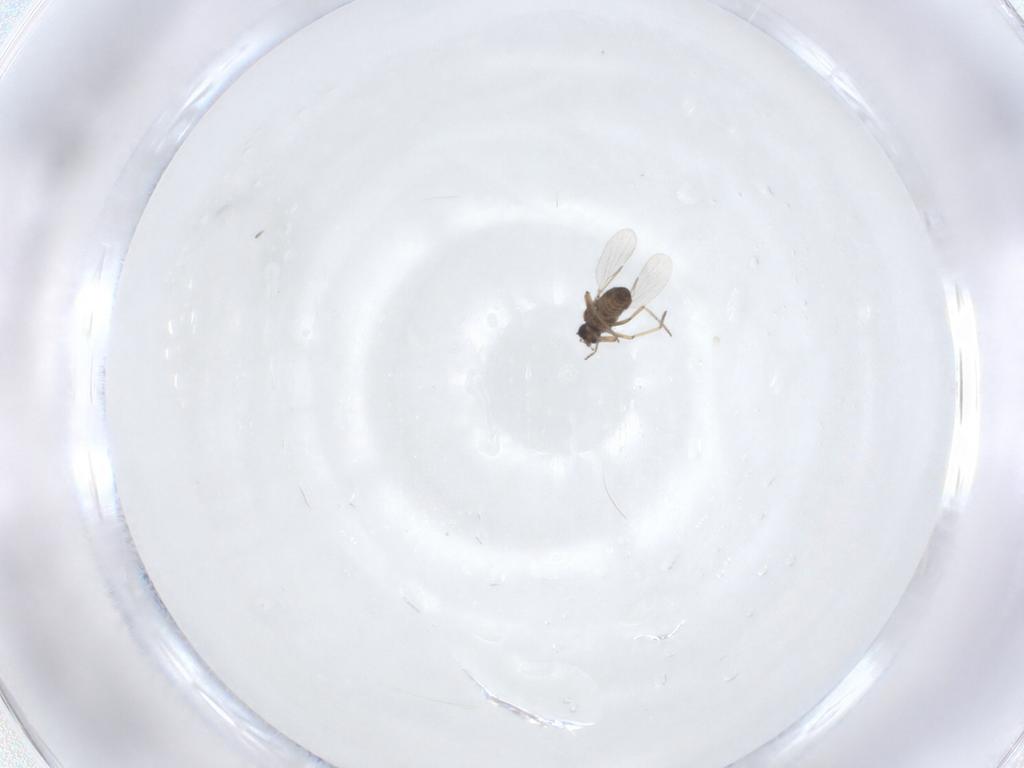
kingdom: Animalia
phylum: Arthropoda
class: Insecta
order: Diptera
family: Ceratopogonidae
